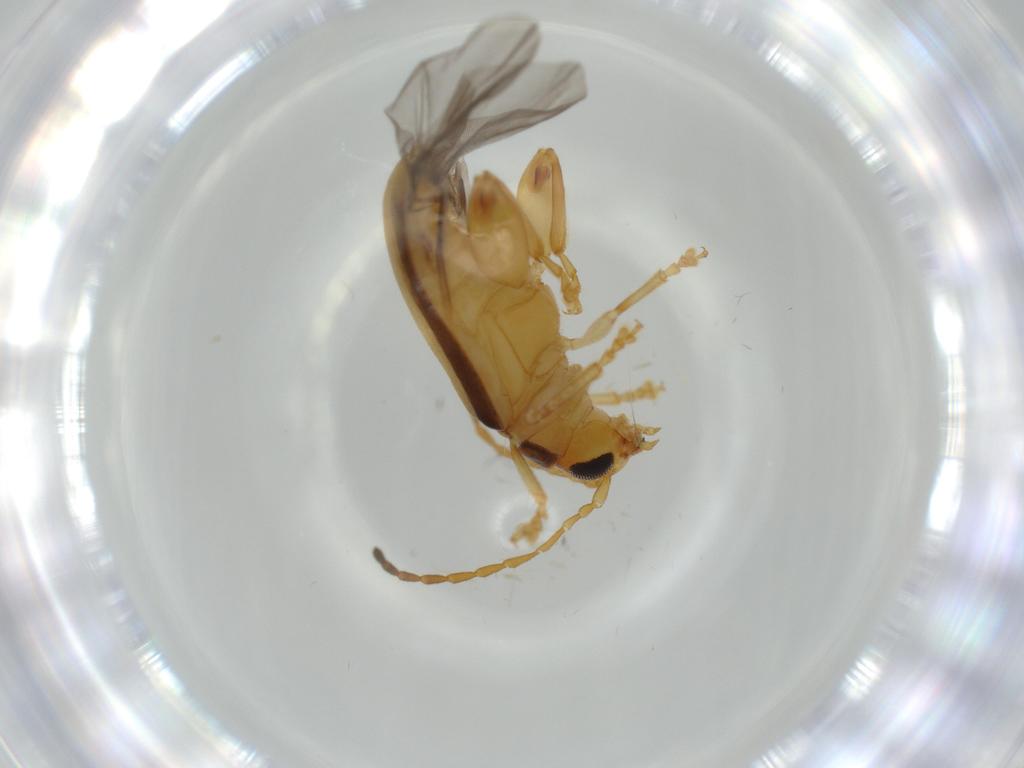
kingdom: Animalia
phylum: Arthropoda
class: Insecta
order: Coleoptera
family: Chrysomelidae
